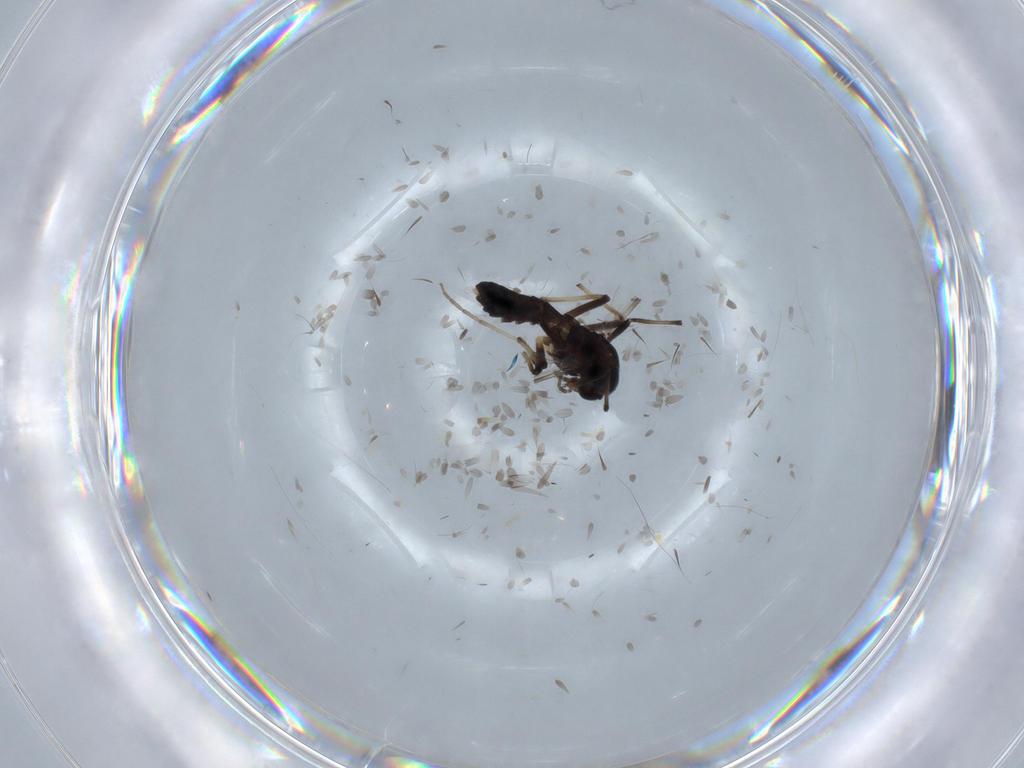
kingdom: Animalia
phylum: Arthropoda
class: Insecta
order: Diptera
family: Chironomidae
